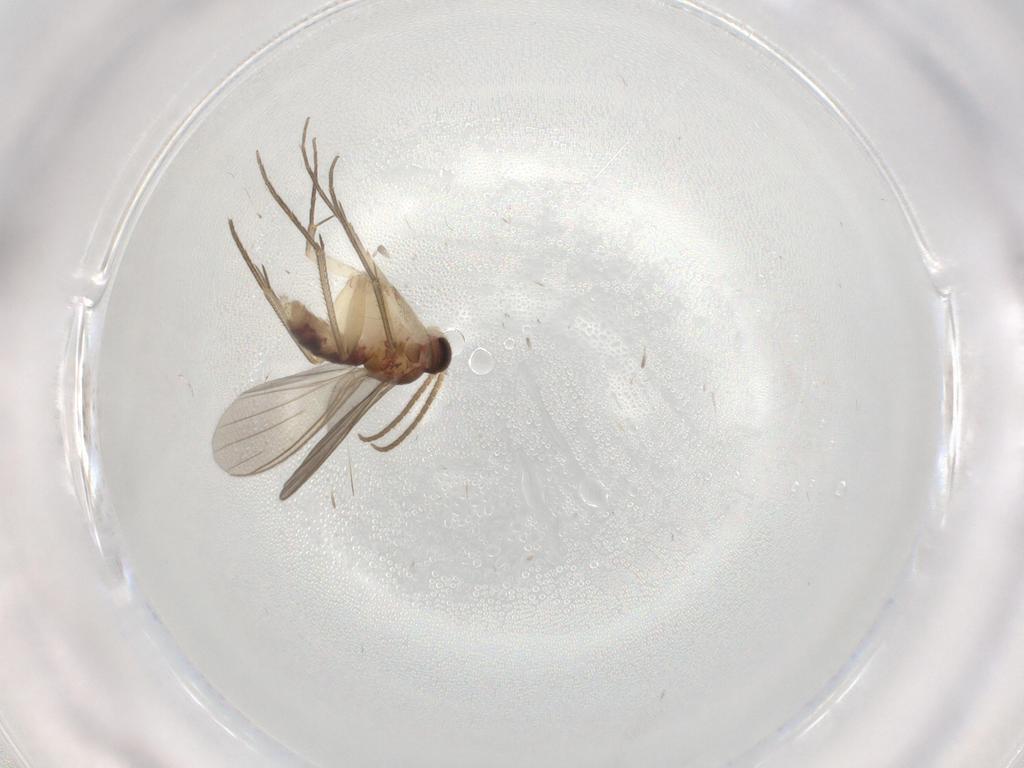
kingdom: Animalia
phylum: Arthropoda
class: Insecta
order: Diptera
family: Mycetophilidae
